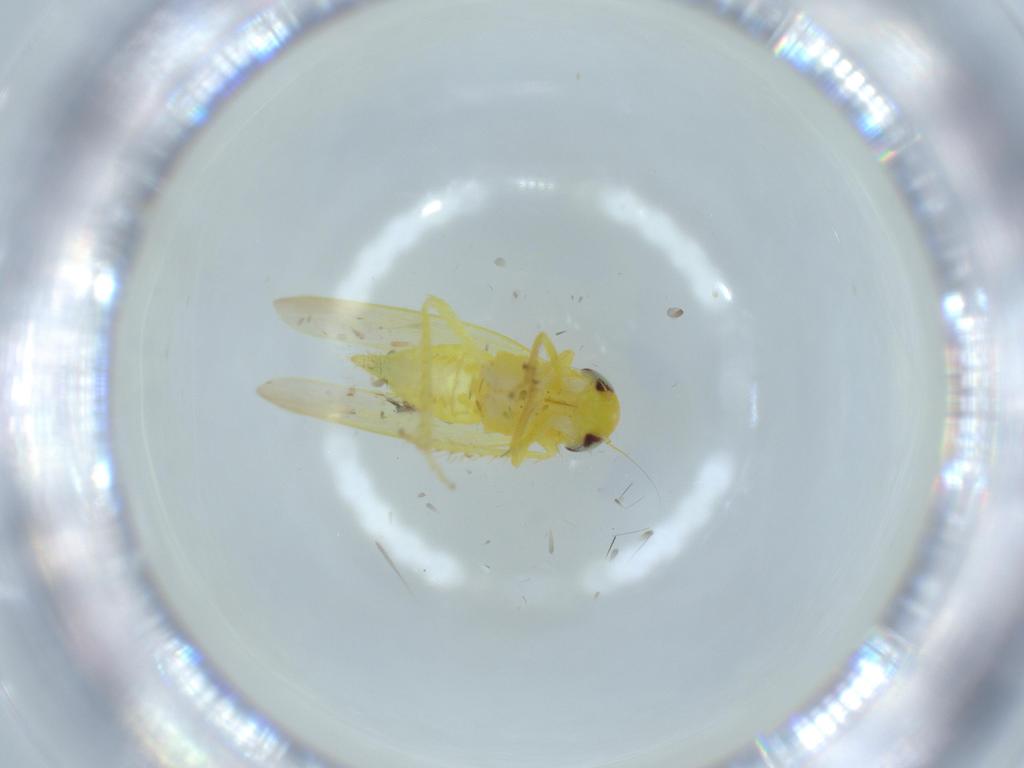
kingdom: Animalia
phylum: Arthropoda
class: Insecta
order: Hemiptera
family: Cicadellidae
